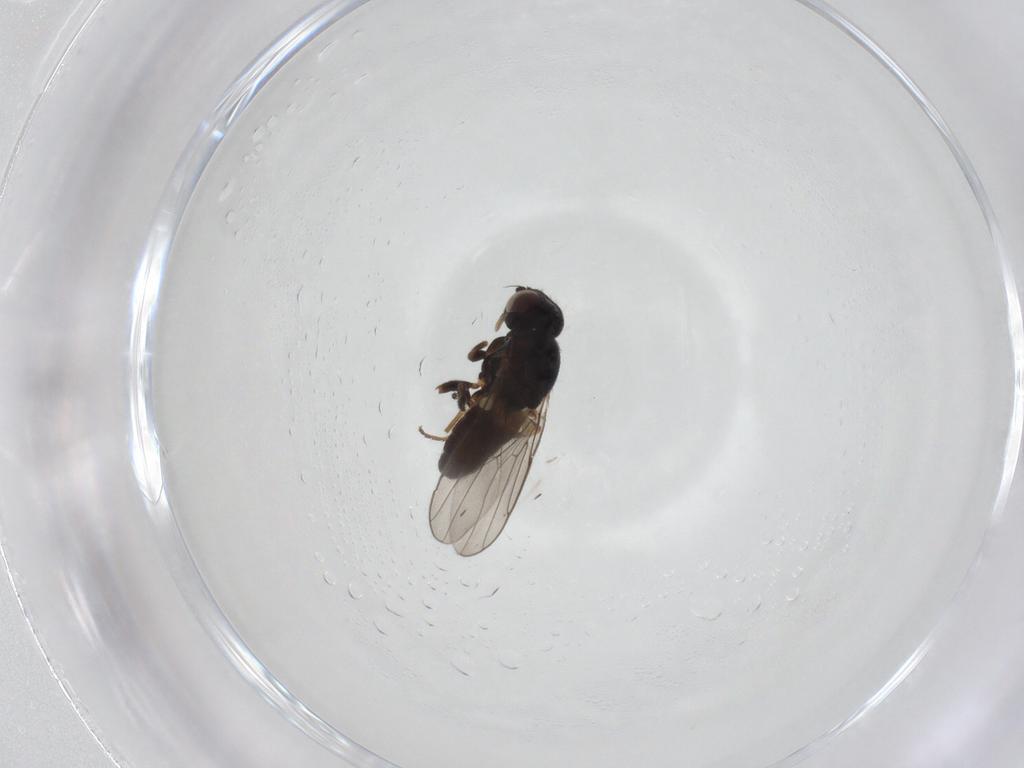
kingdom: Animalia
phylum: Arthropoda
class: Insecta
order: Diptera
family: Chloropidae
